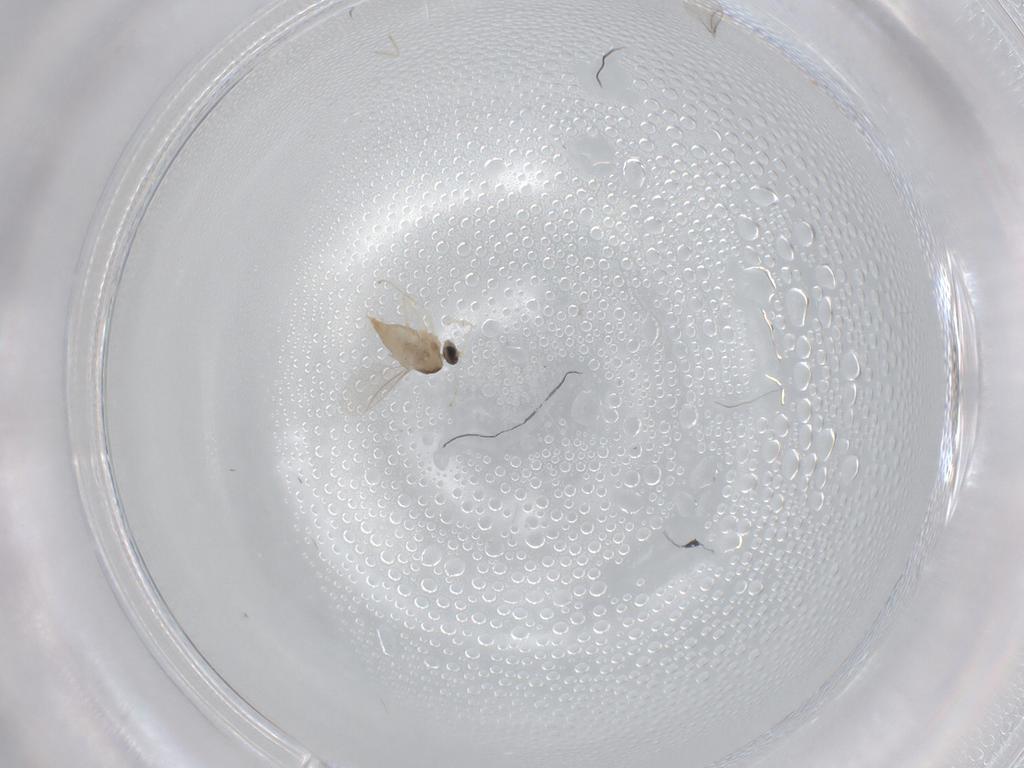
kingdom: Animalia
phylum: Arthropoda
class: Insecta
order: Diptera
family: Cecidomyiidae
